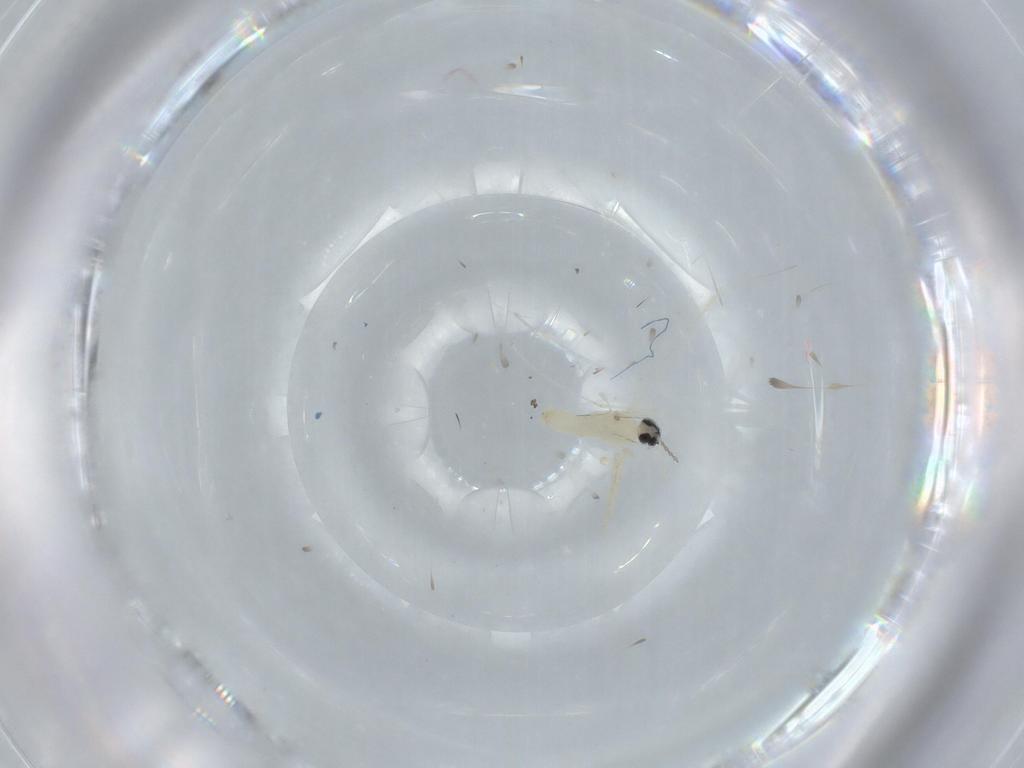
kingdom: Animalia
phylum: Arthropoda
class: Insecta
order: Diptera
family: Cecidomyiidae
